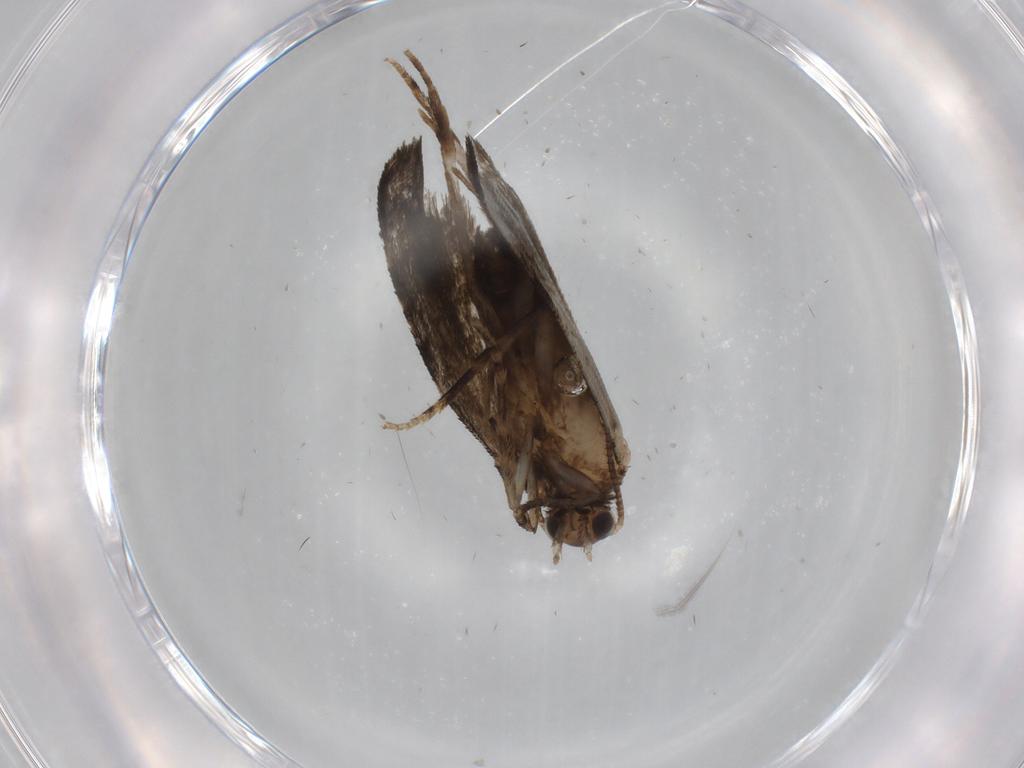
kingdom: Animalia
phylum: Arthropoda
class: Insecta
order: Lepidoptera
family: Tortricidae
